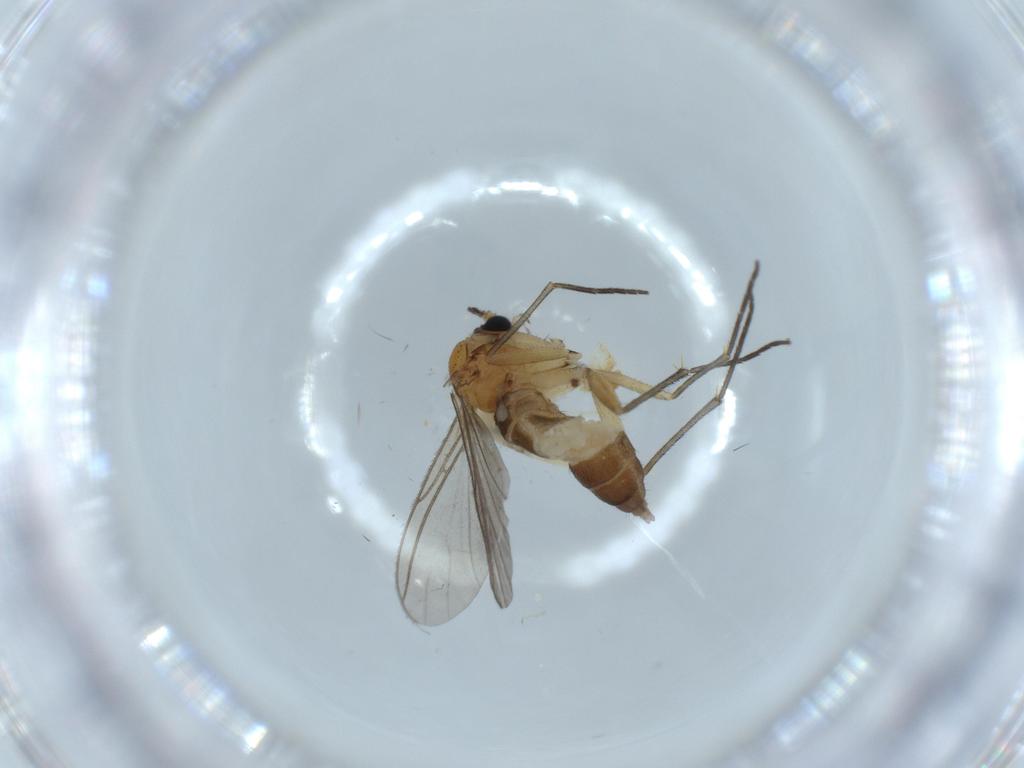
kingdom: Animalia
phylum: Arthropoda
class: Insecta
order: Diptera
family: Sciaridae
